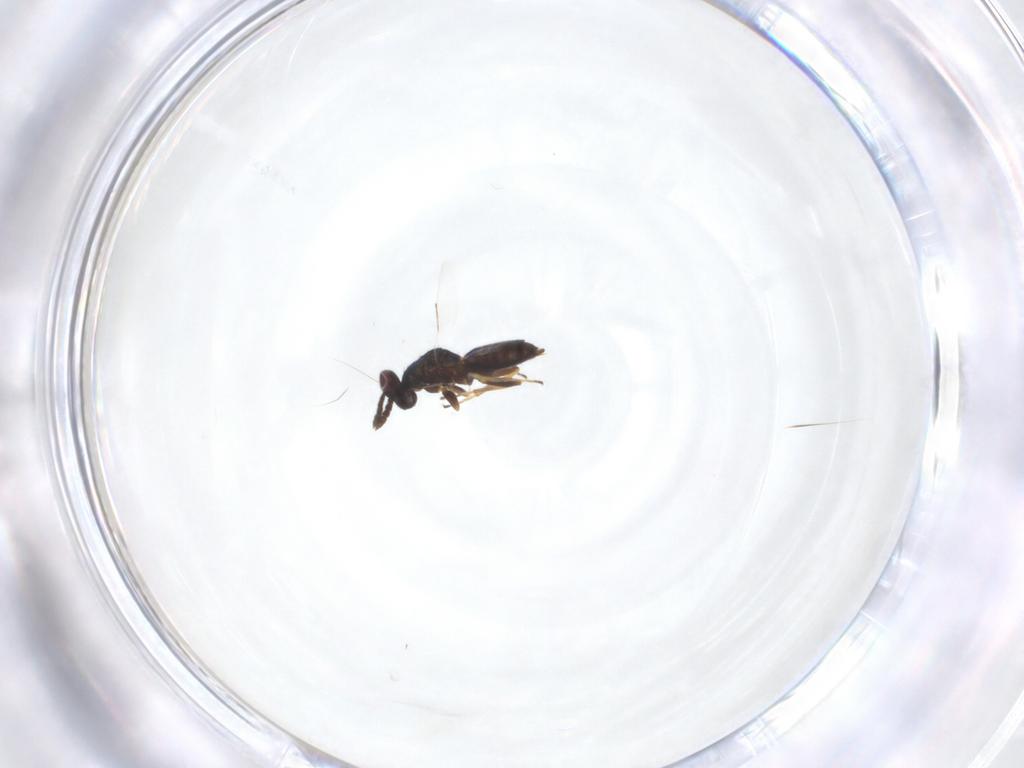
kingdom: Animalia
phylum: Arthropoda
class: Insecta
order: Hymenoptera
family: Eulophidae
